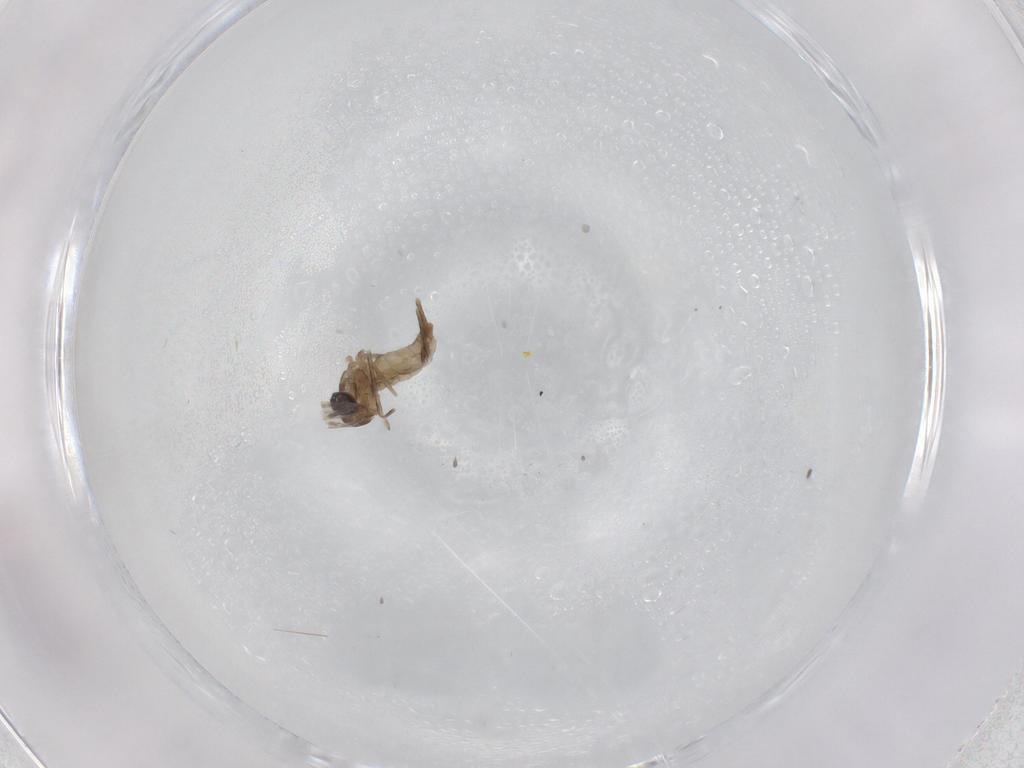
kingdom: Animalia
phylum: Arthropoda
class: Insecta
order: Diptera
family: Cecidomyiidae
